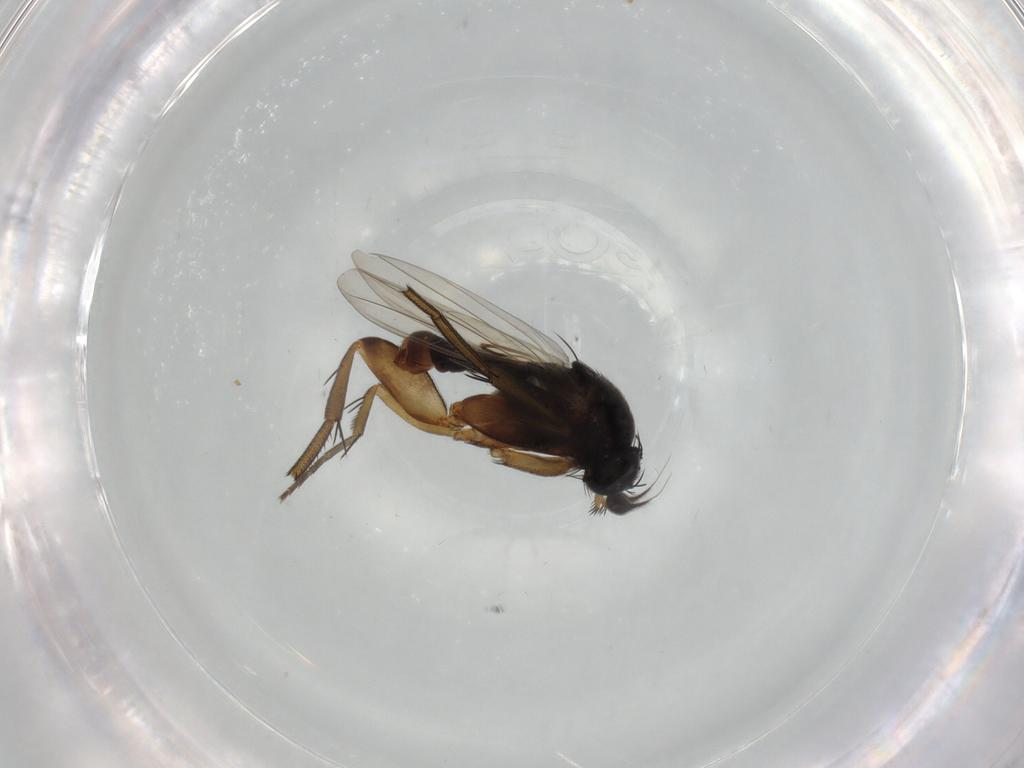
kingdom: Animalia
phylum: Arthropoda
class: Insecta
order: Diptera
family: Phoridae
